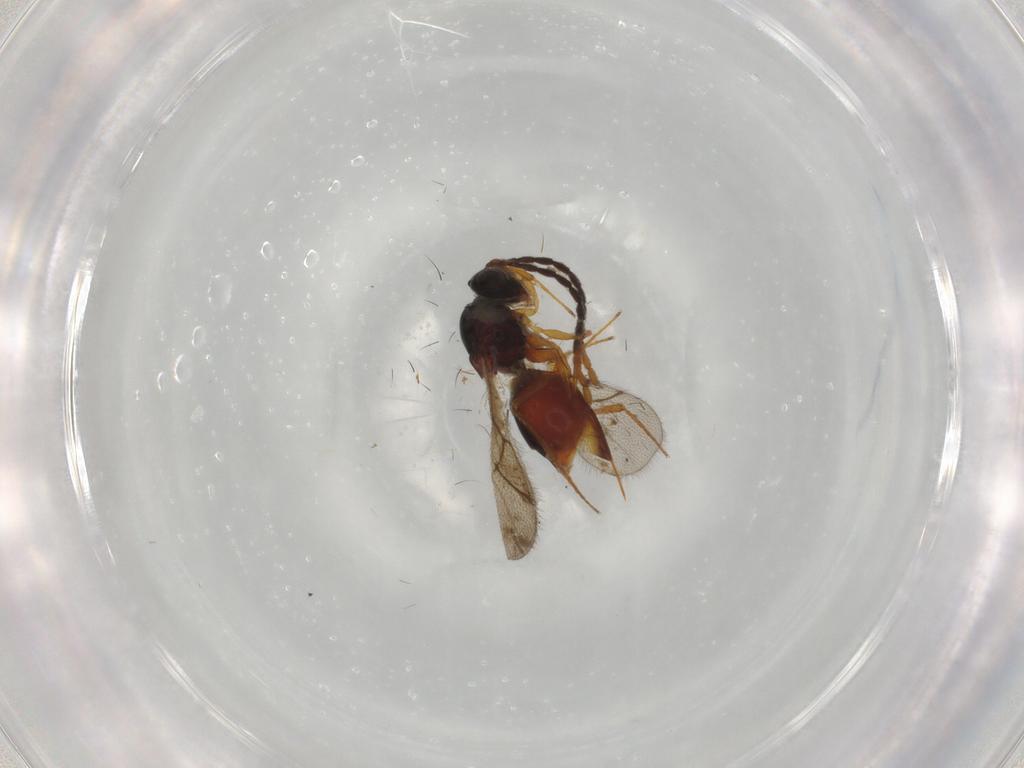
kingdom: Animalia
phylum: Arthropoda
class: Insecta
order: Hymenoptera
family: Figitidae
